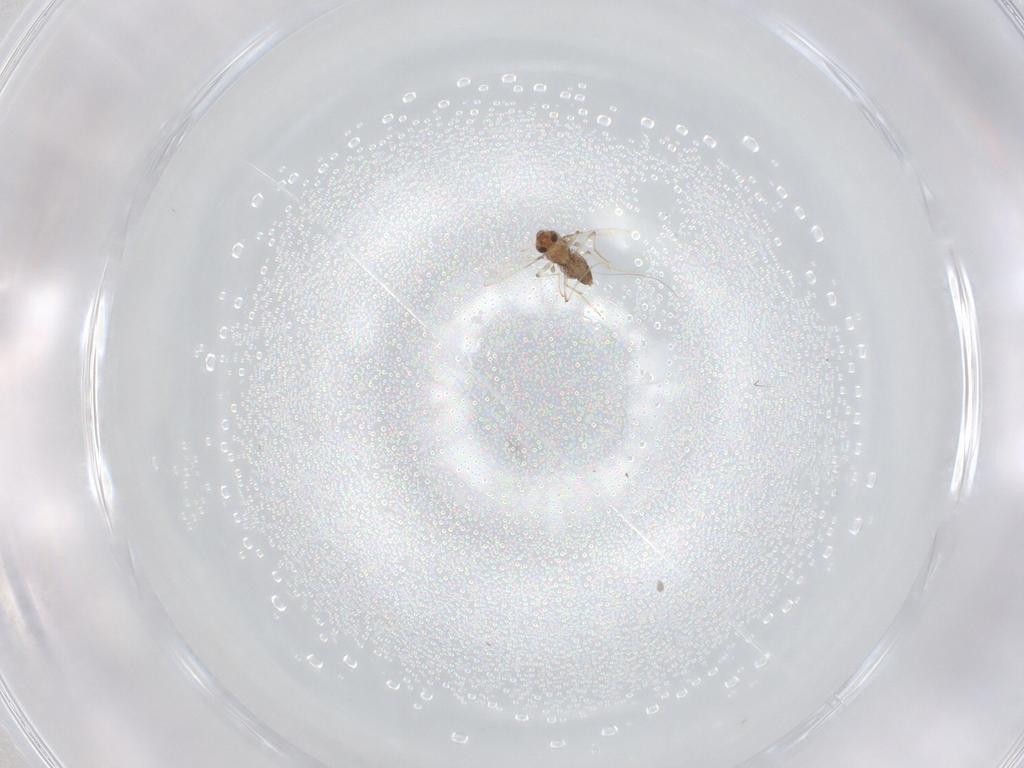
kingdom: Animalia
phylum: Arthropoda
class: Insecta
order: Diptera
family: Chironomidae
